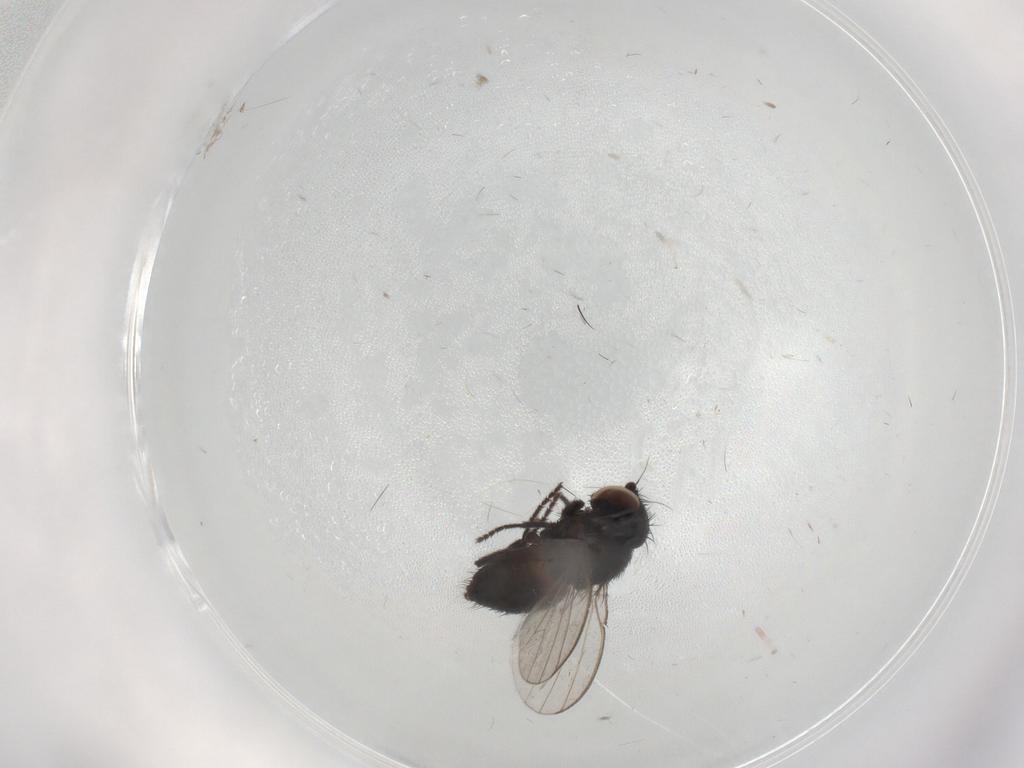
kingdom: Animalia
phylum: Arthropoda
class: Insecta
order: Diptera
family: Milichiidae
